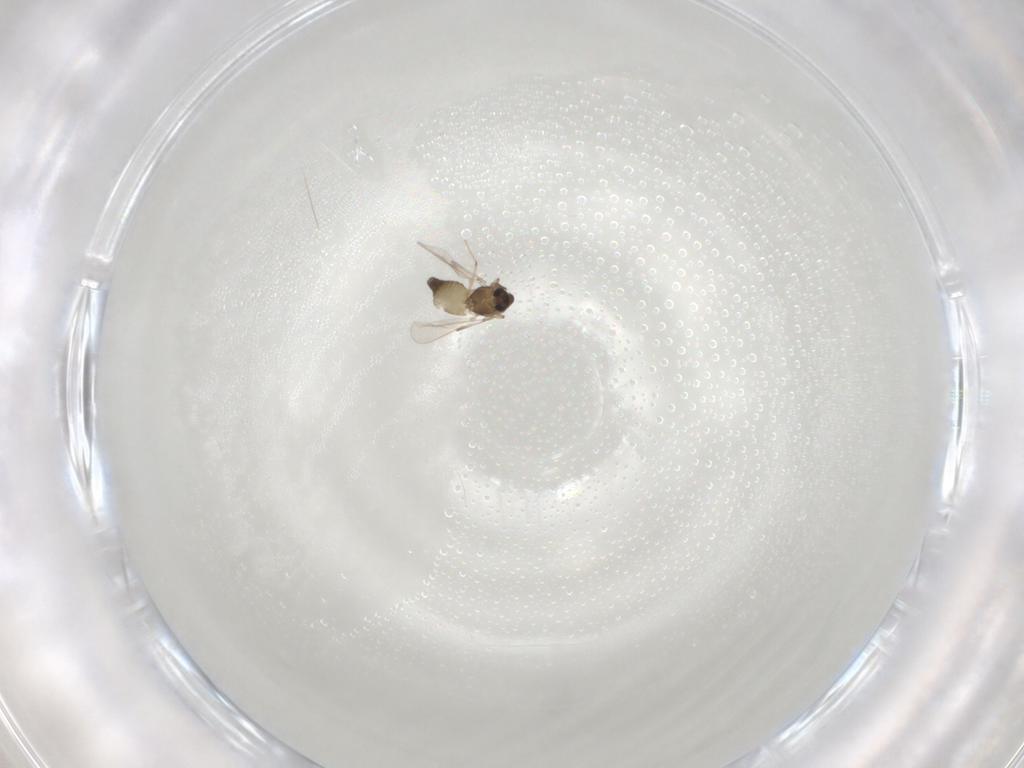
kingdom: Animalia
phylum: Arthropoda
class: Insecta
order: Diptera
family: Chironomidae
